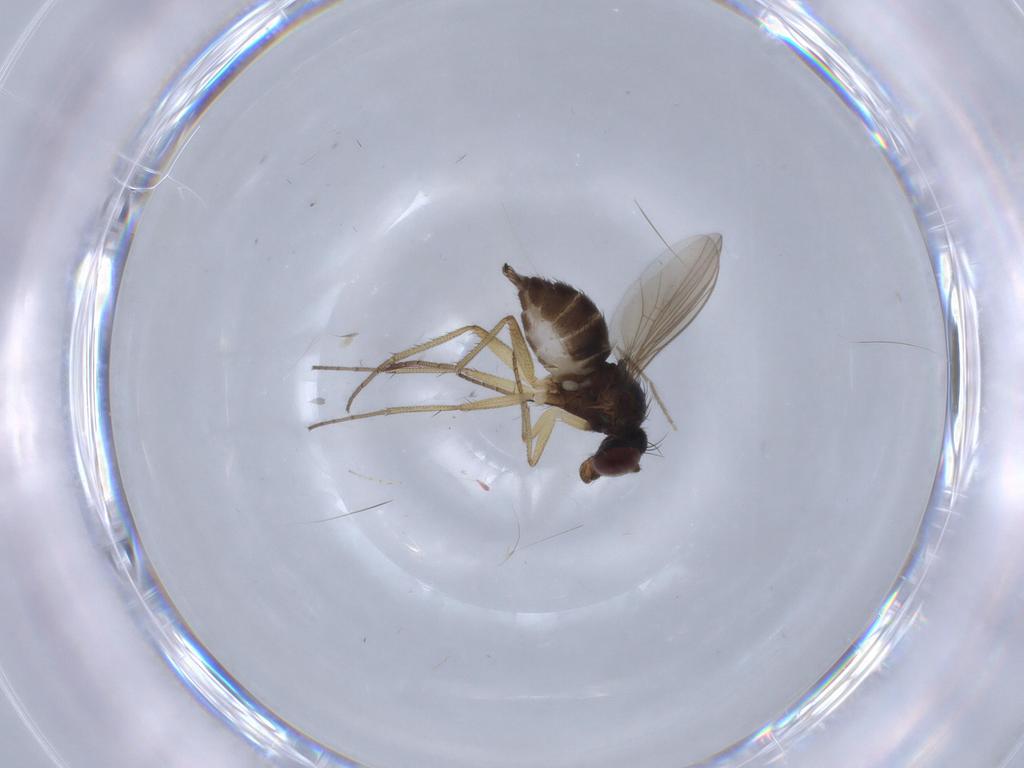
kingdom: Animalia
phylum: Arthropoda
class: Insecta
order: Diptera
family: Dolichopodidae
